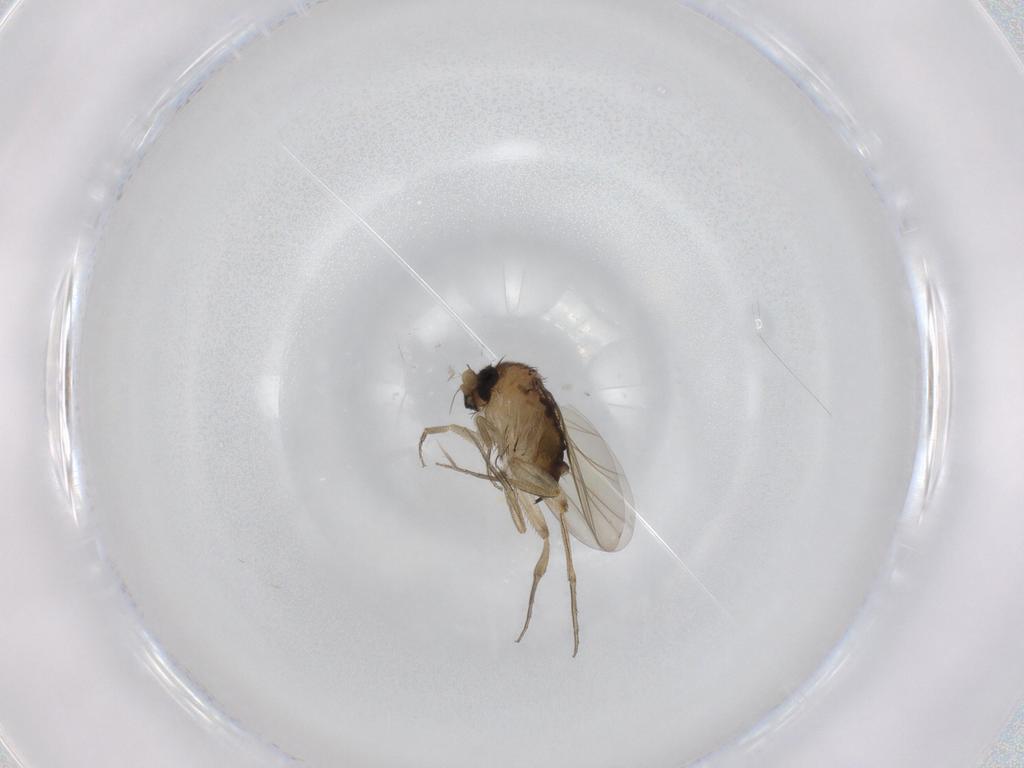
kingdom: Animalia
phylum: Arthropoda
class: Insecta
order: Diptera
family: Phoridae
